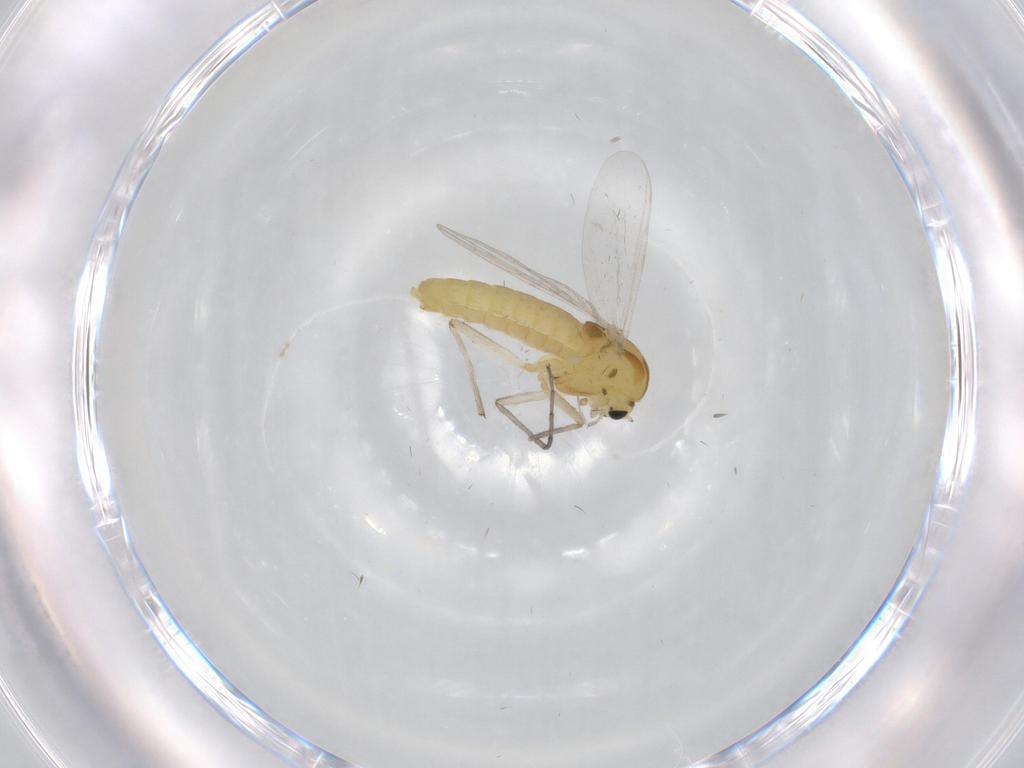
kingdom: Animalia
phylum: Arthropoda
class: Insecta
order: Diptera
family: Chironomidae
